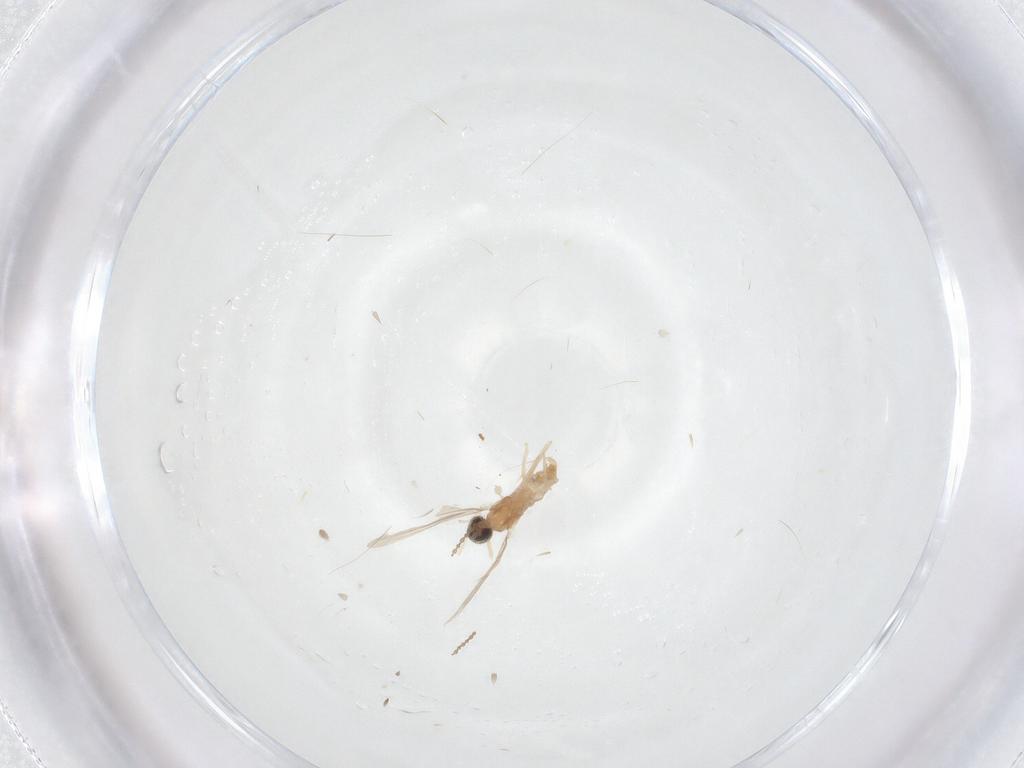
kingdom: Animalia
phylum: Arthropoda
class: Insecta
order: Diptera
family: Cecidomyiidae
